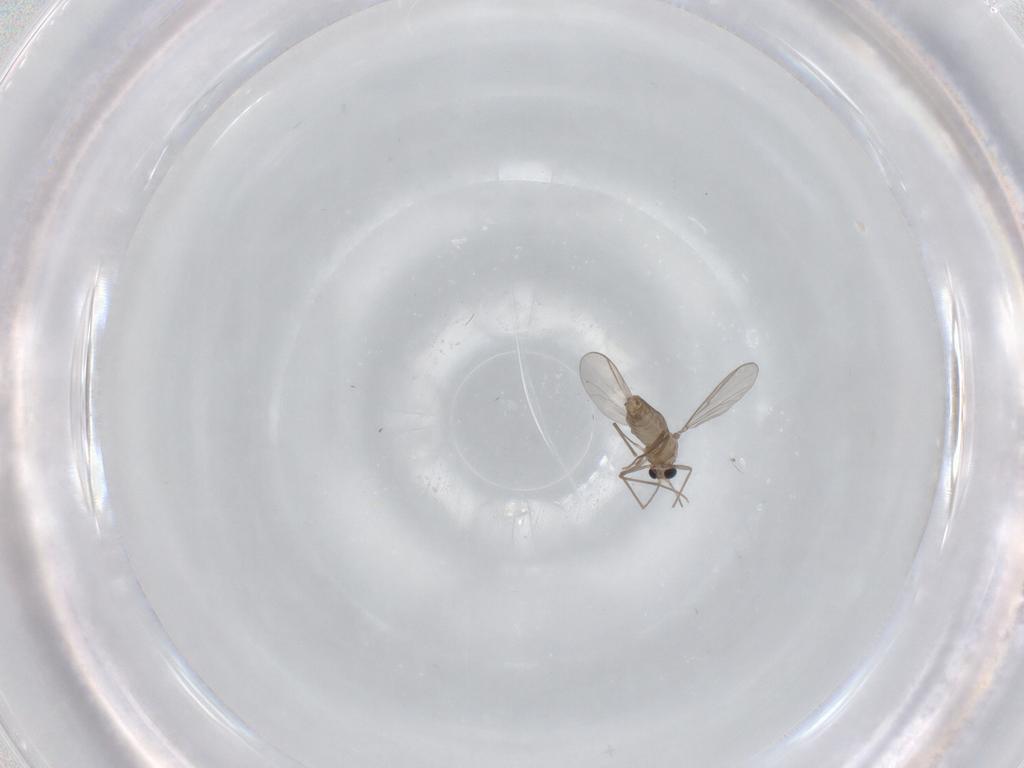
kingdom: Animalia
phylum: Arthropoda
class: Insecta
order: Diptera
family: Chironomidae
